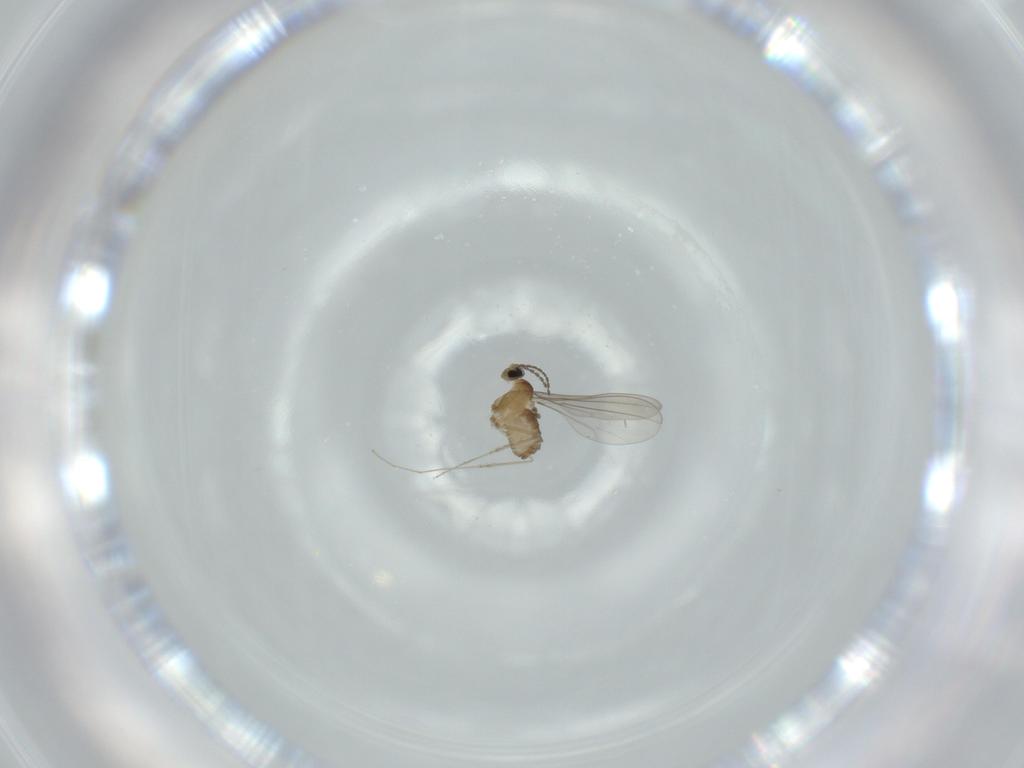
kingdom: Animalia
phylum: Arthropoda
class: Insecta
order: Diptera
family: Cecidomyiidae
